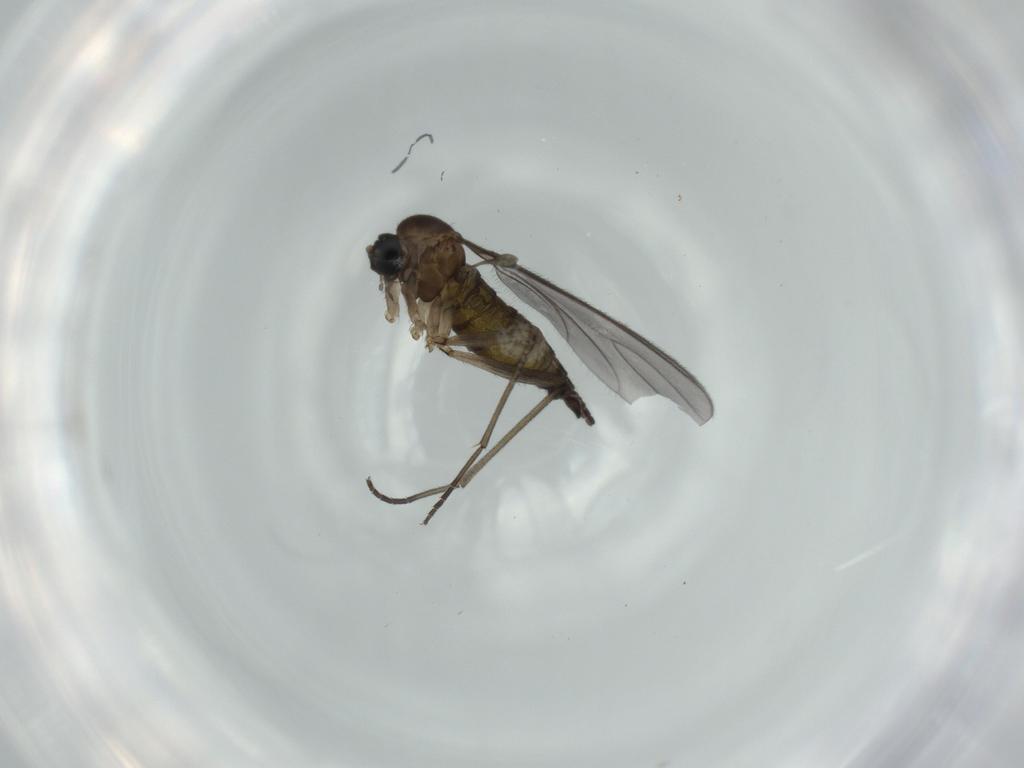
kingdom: Animalia
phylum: Arthropoda
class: Insecta
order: Diptera
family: Sciaridae
